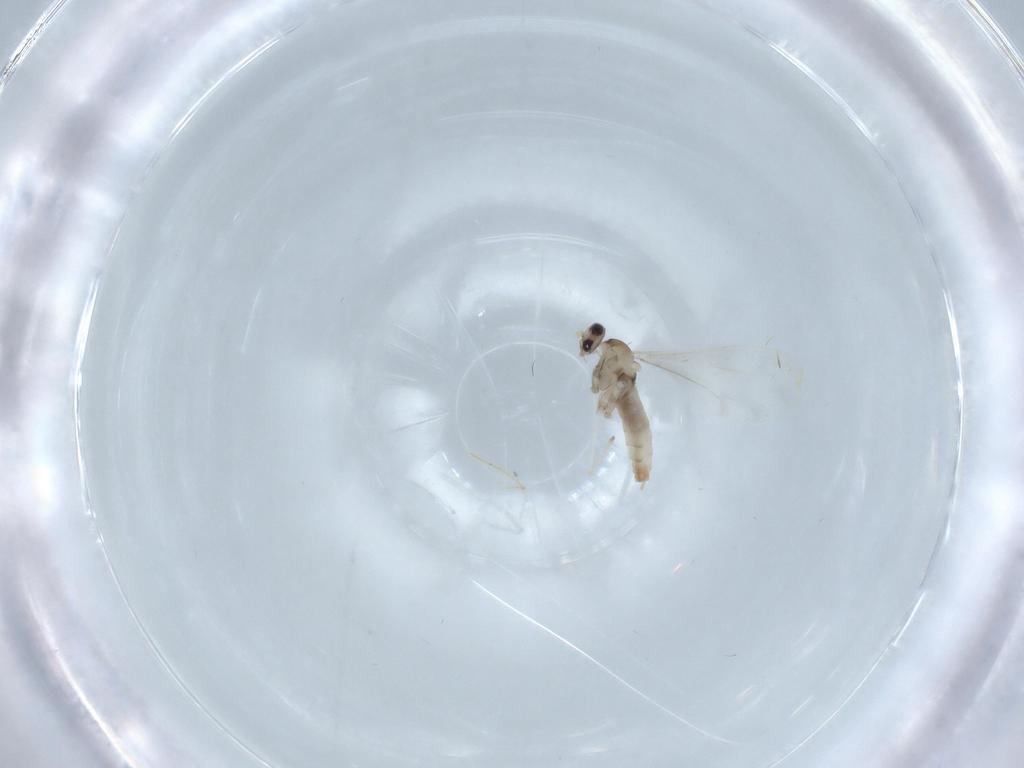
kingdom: Animalia
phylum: Arthropoda
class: Insecta
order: Diptera
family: Cecidomyiidae
